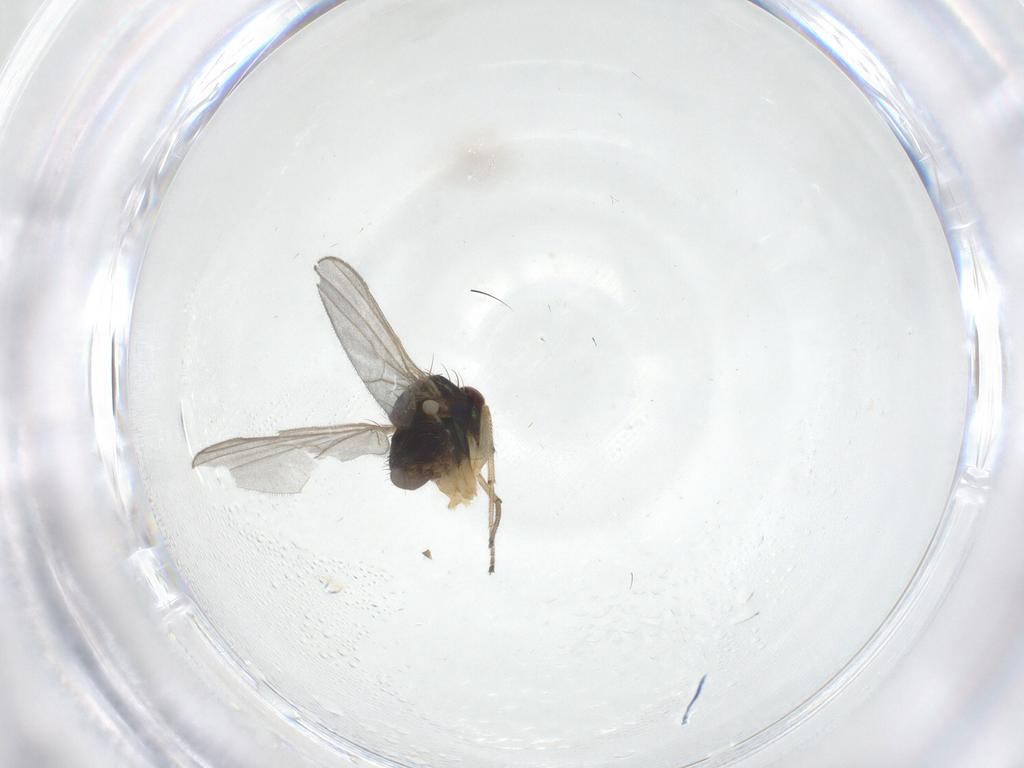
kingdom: Animalia
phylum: Arthropoda
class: Insecta
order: Diptera
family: Dolichopodidae
